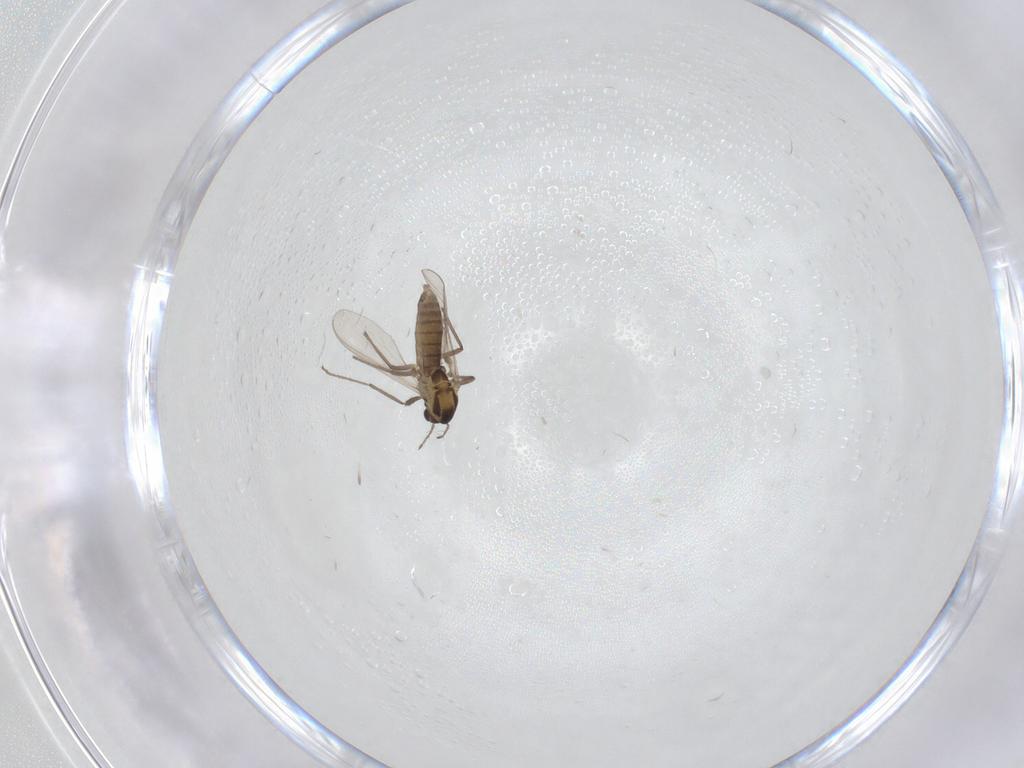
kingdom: Animalia
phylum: Arthropoda
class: Insecta
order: Diptera
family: Chironomidae
